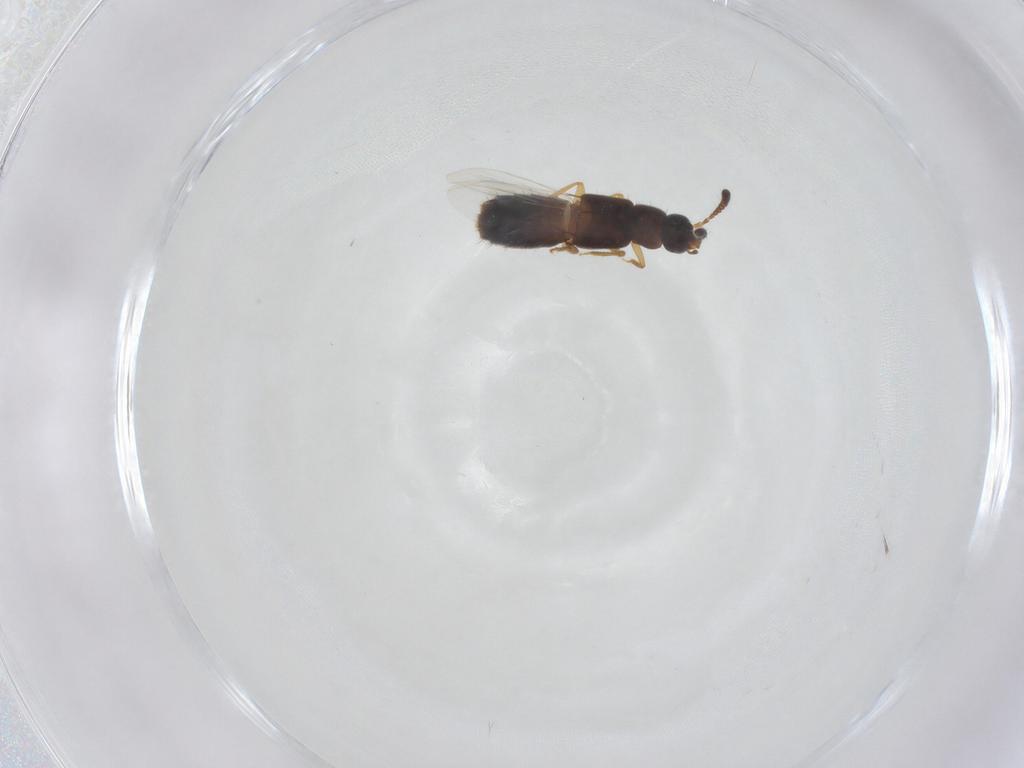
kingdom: Animalia
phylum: Arthropoda
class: Insecta
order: Coleoptera
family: Staphylinidae
